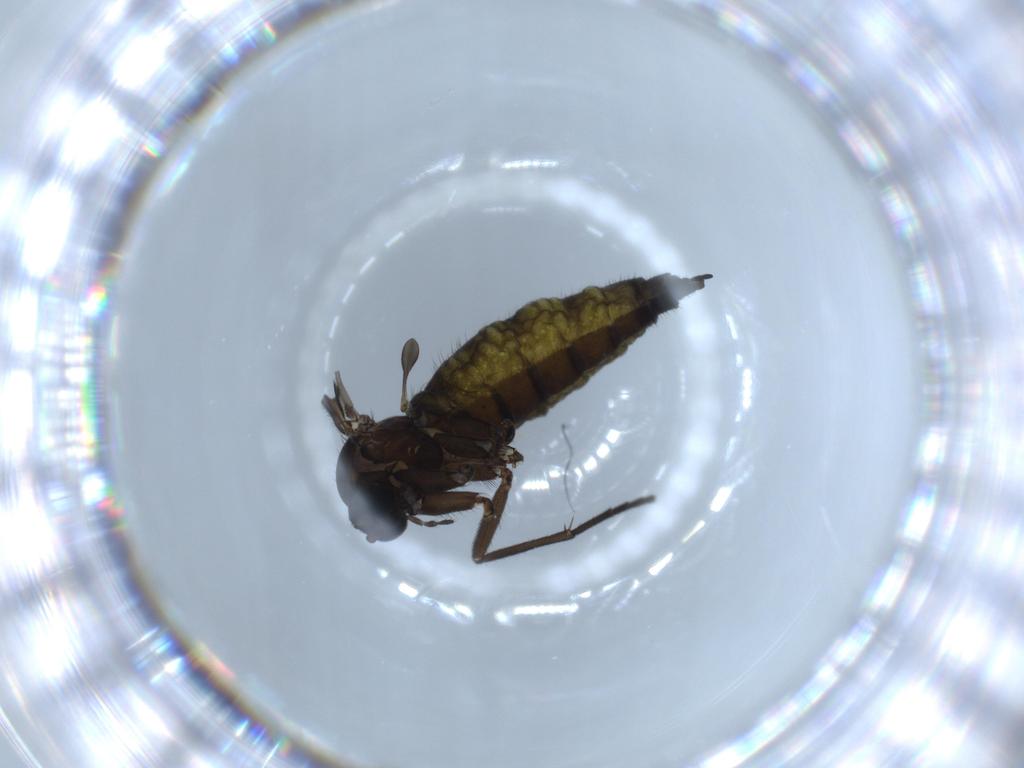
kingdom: Animalia
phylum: Arthropoda
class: Insecta
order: Diptera
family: Sciaridae
